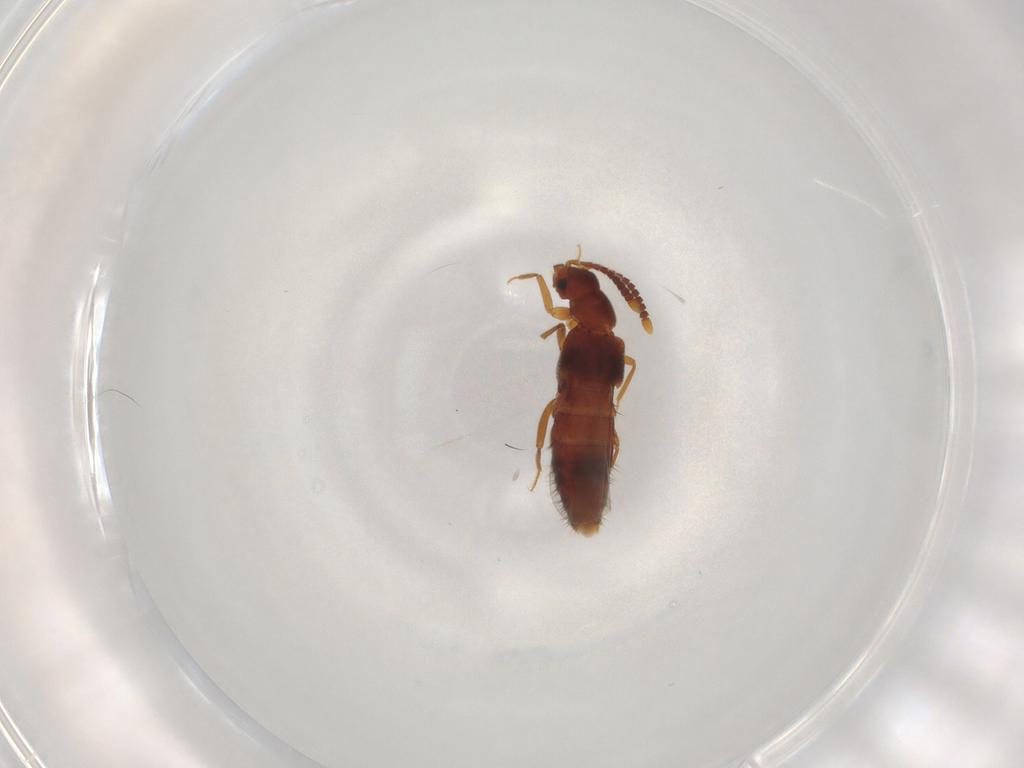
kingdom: Animalia
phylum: Arthropoda
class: Insecta
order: Coleoptera
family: Staphylinidae
